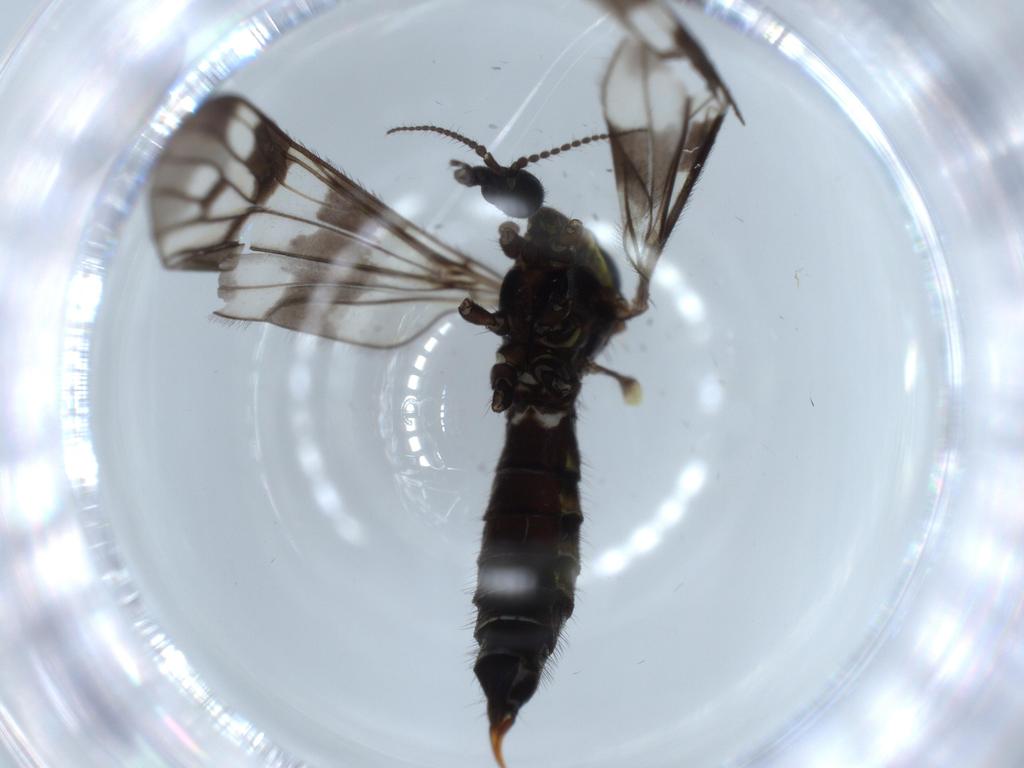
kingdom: Animalia
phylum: Arthropoda
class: Insecta
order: Diptera
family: Limoniidae
